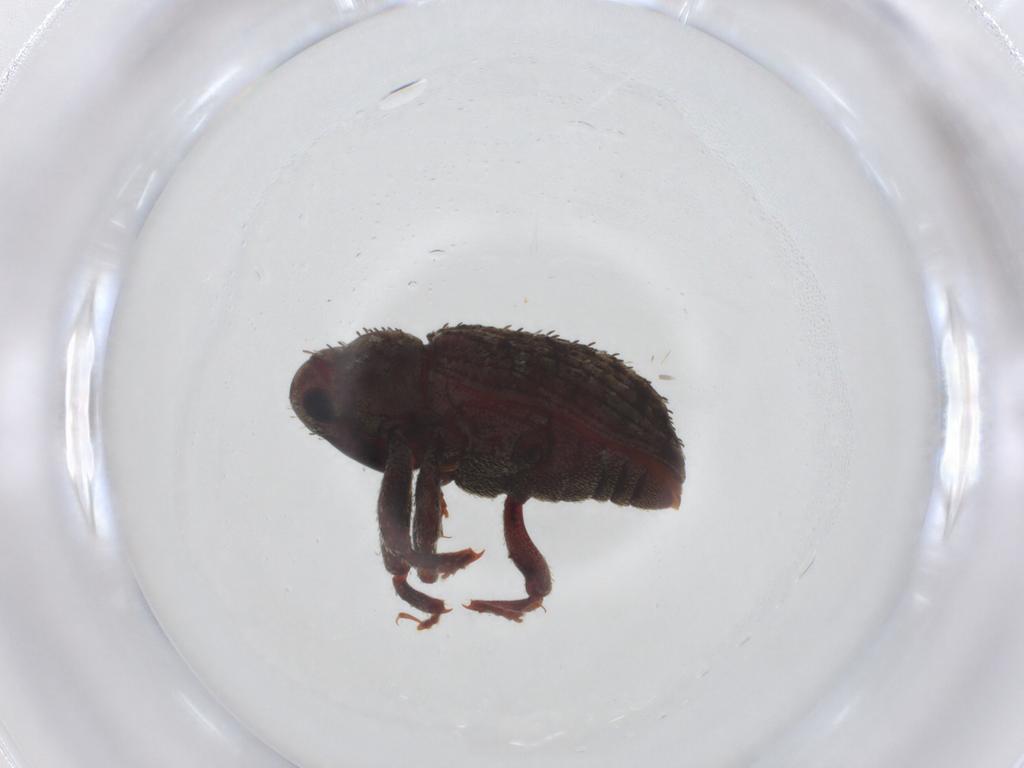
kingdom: Animalia
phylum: Arthropoda
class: Insecta
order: Coleoptera
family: Curculionidae
